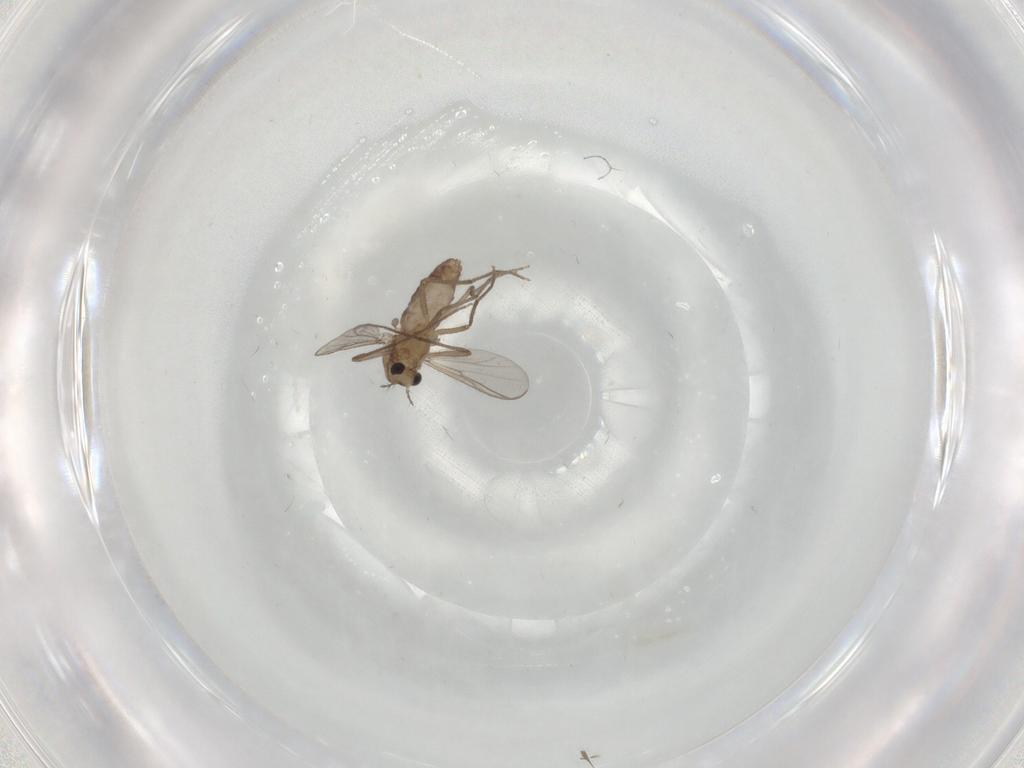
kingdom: Animalia
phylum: Arthropoda
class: Insecta
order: Diptera
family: Chironomidae
